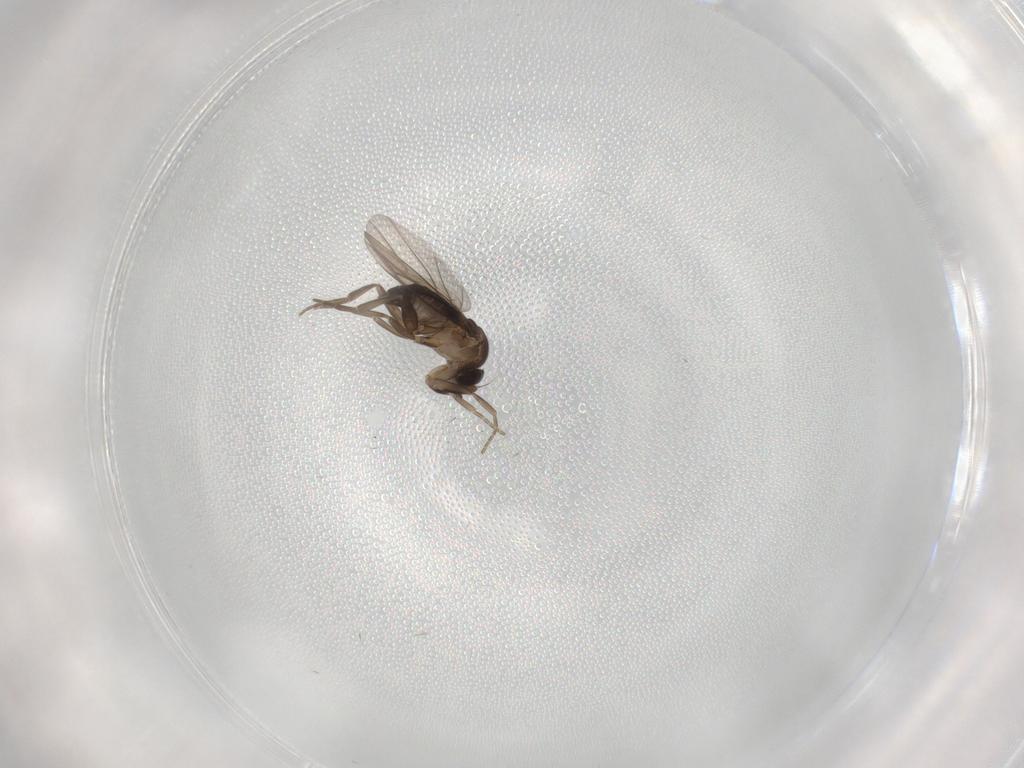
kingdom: Animalia
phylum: Arthropoda
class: Insecta
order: Diptera
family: Phoridae
